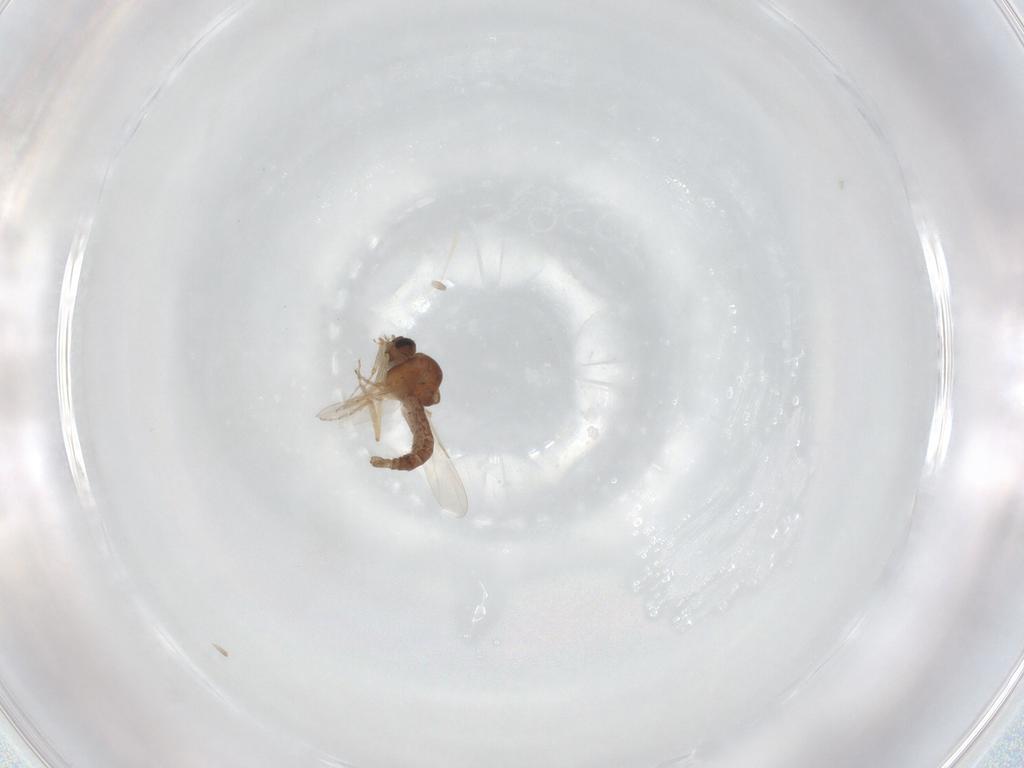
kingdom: Animalia
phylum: Arthropoda
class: Insecta
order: Diptera
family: Ceratopogonidae
